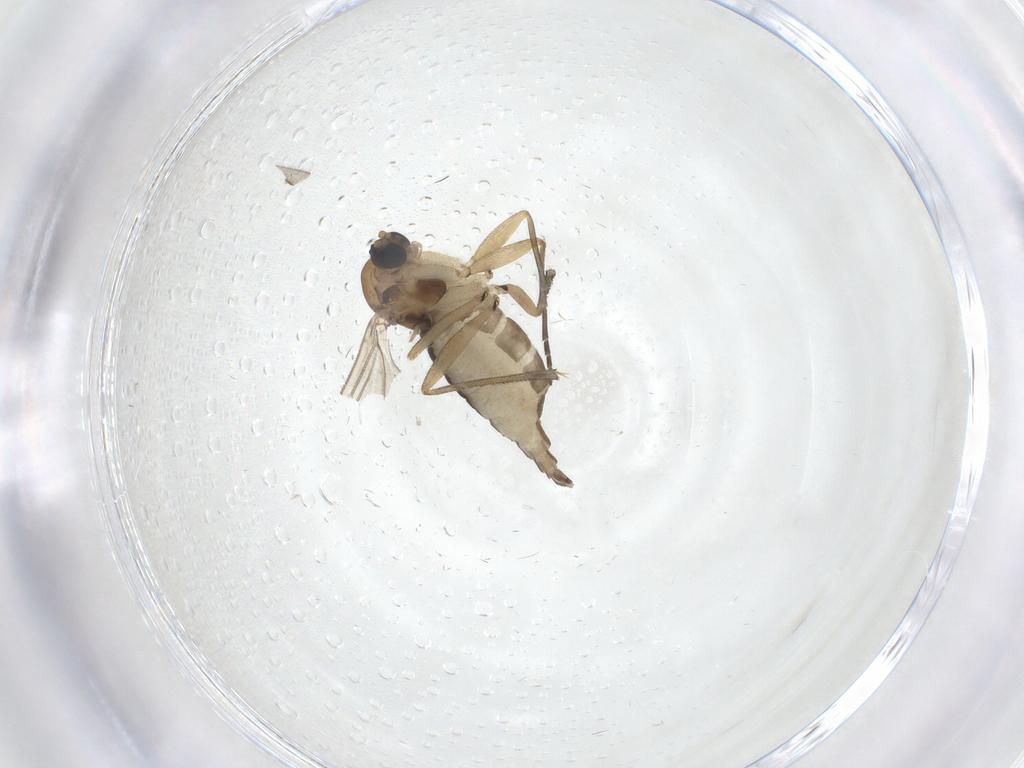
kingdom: Animalia
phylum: Arthropoda
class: Insecta
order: Diptera
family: Sciaridae
